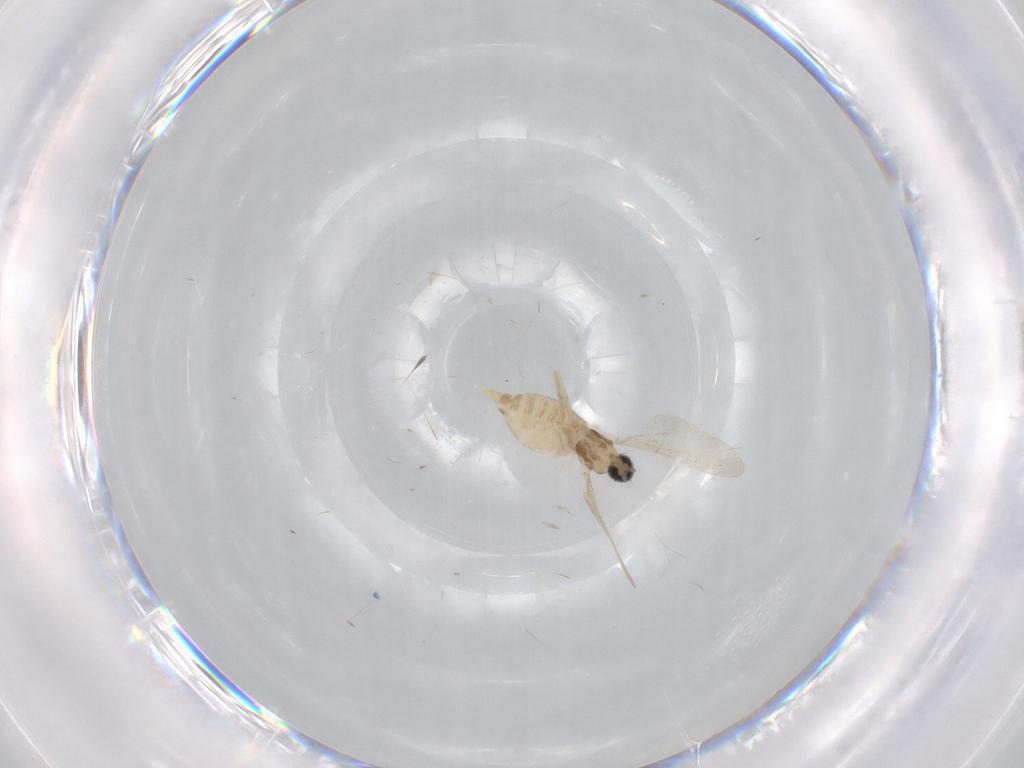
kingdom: Animalia
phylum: Arthropoda
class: Insecta
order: Diptera
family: Cecidomyiidae
